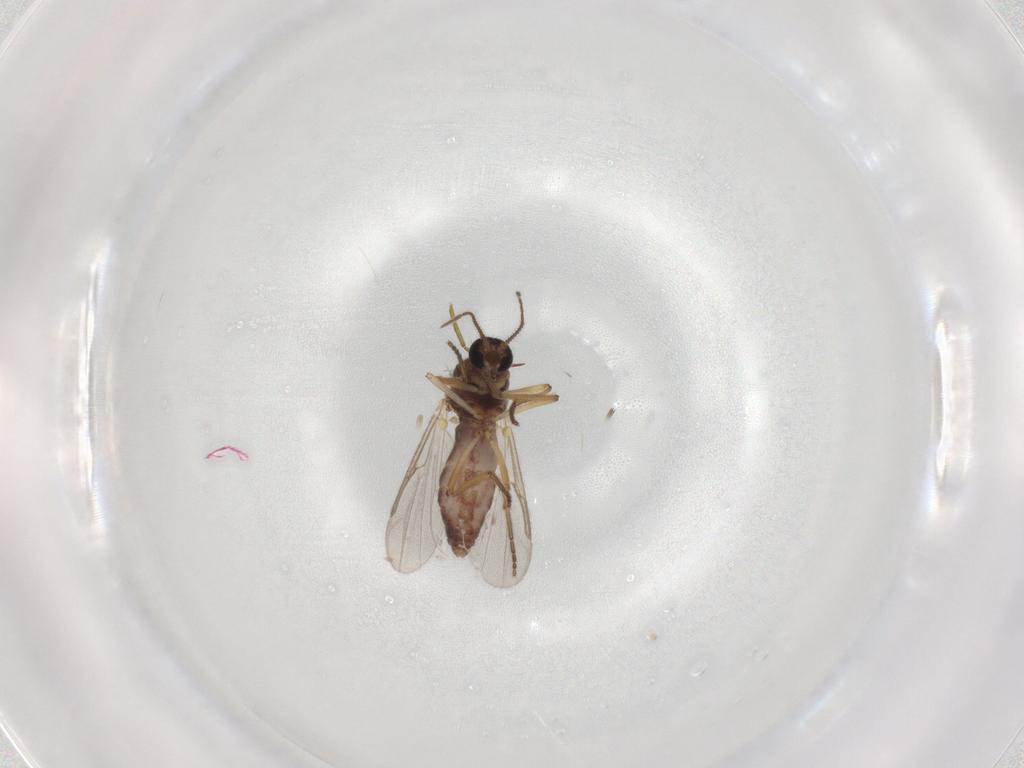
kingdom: Animalia
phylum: Arthropoda
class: Insecta
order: Diptera
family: Ceratopogonidae
